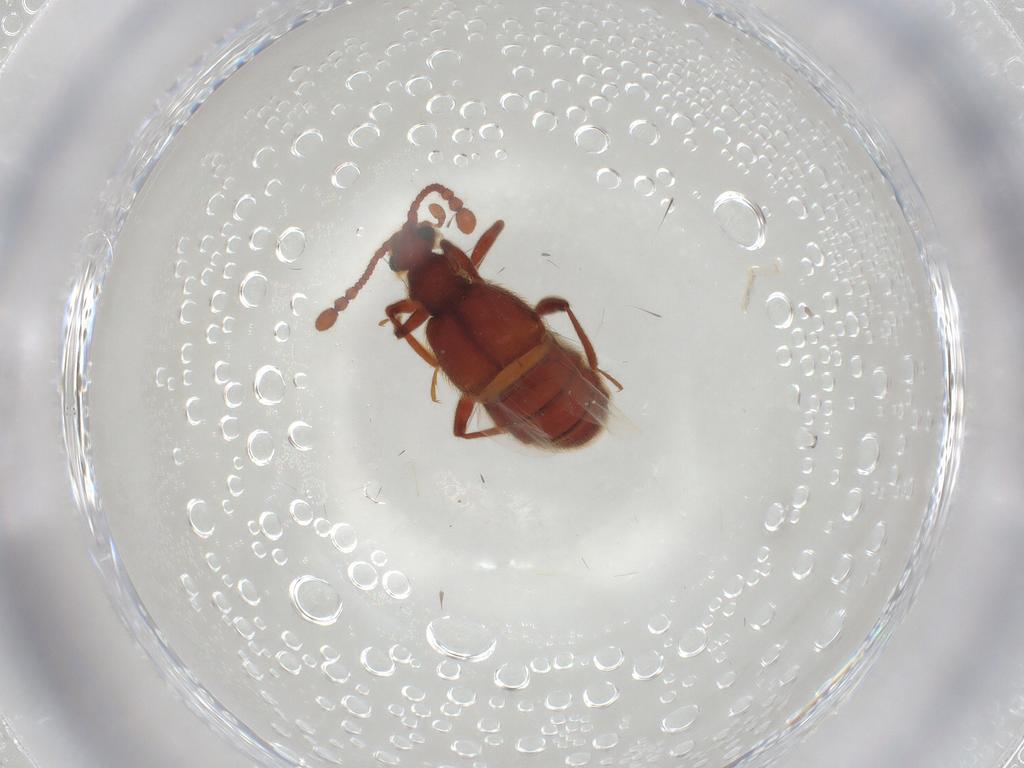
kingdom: Animalia
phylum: Arthropoda
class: Insecta
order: Coleoptera
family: Staphylinidae
